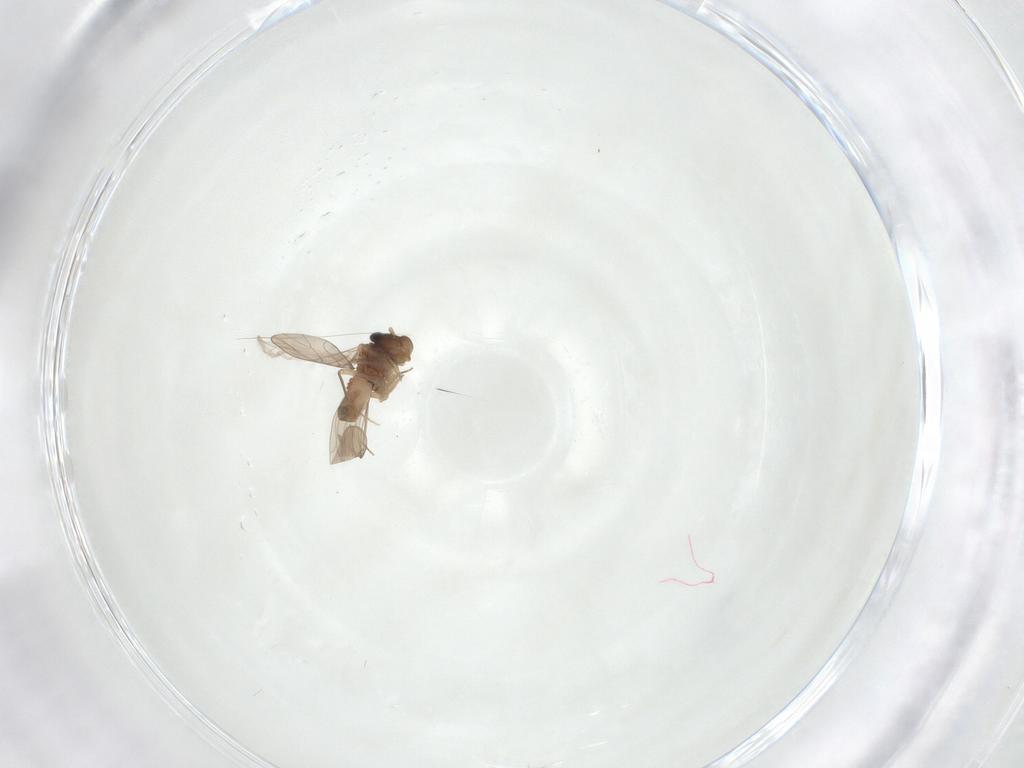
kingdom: Animalia
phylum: Arthropoda
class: Insecta
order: Psocodea
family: Lepidopsocidae
